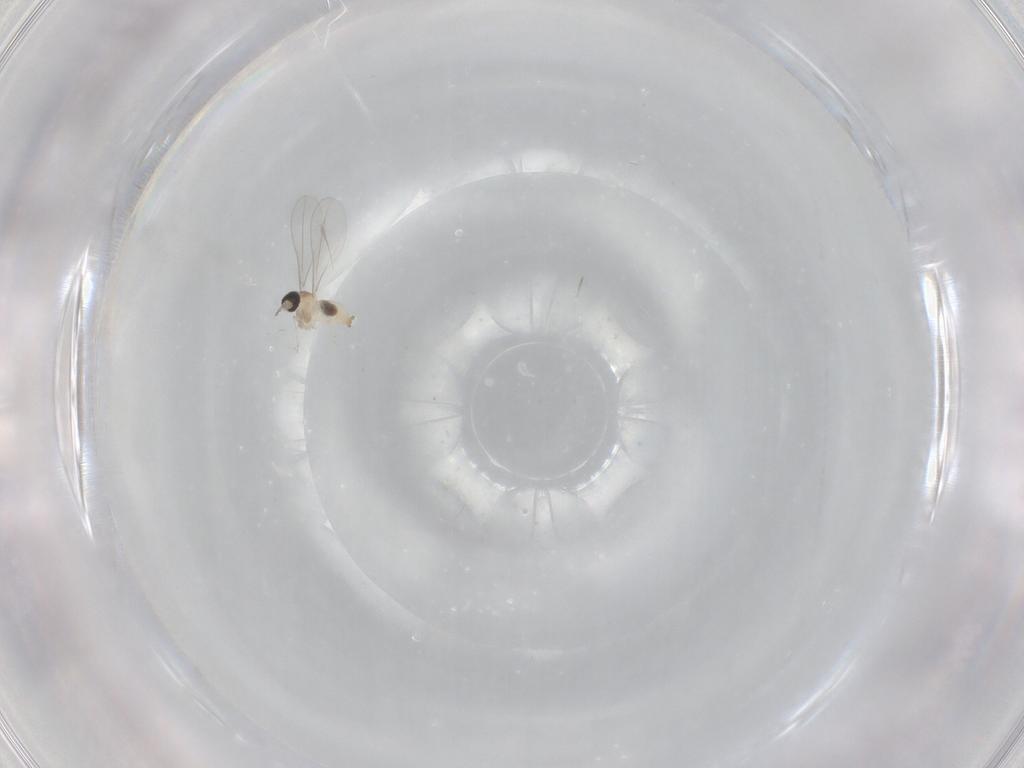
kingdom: Animalia
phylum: Arthropoda
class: Insecta
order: Diptera
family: Cecidomyiidae
